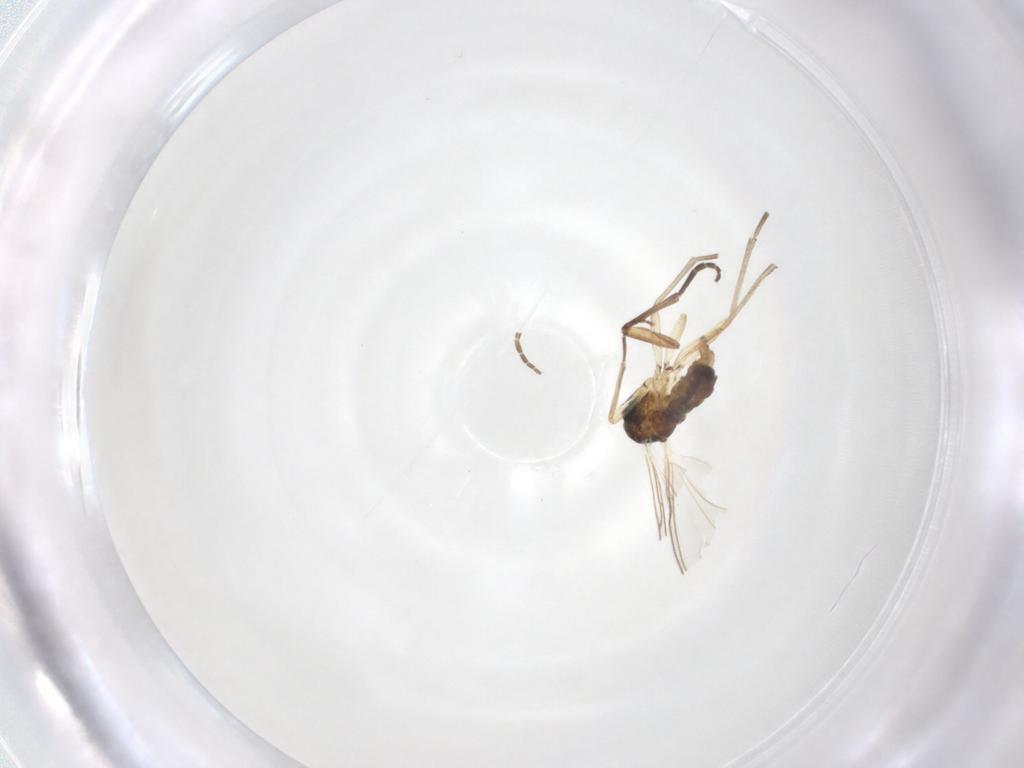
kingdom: Animalia
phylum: Arthropoda
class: Insecta
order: Diptera
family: Sciaridae
